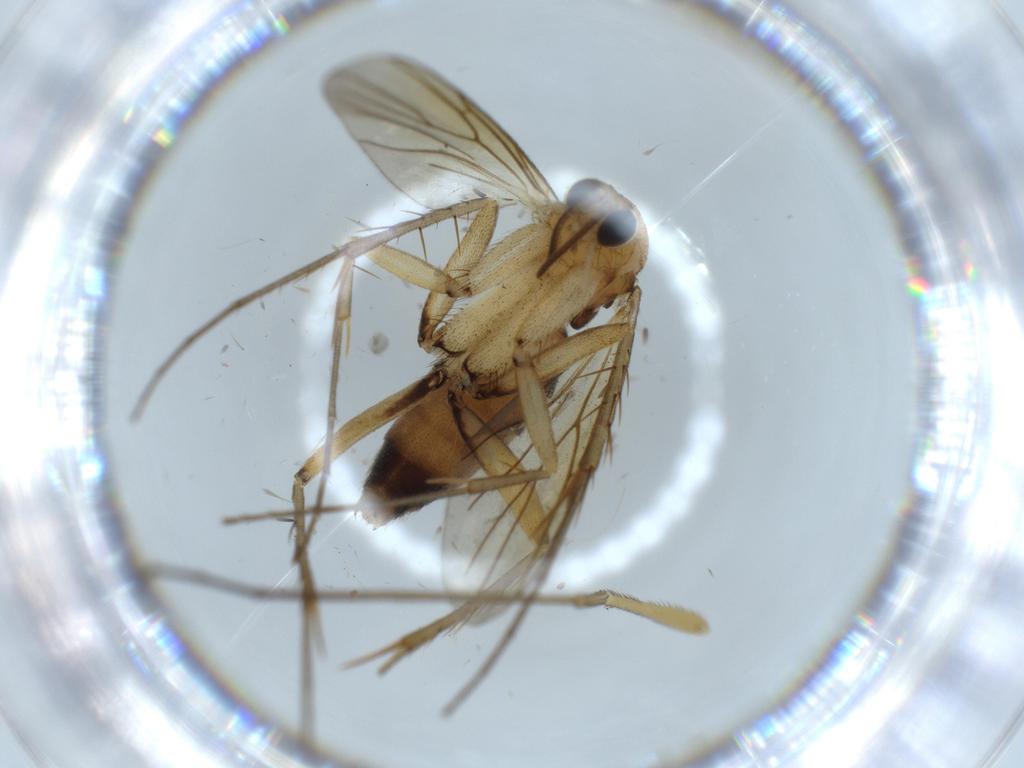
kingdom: Animalia
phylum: Arthropoda
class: Insecta
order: Diptera
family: Mycetophilidae
